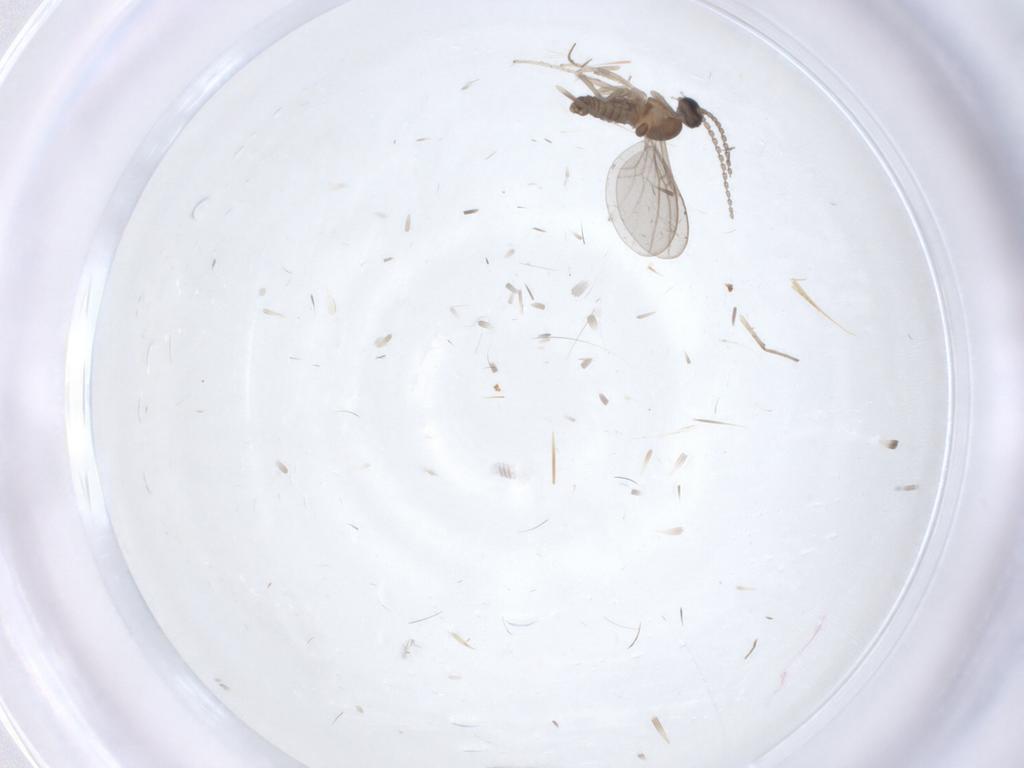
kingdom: Animalia
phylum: Arthropoda
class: Insecta
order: Diptera
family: Cecidomyiidae
